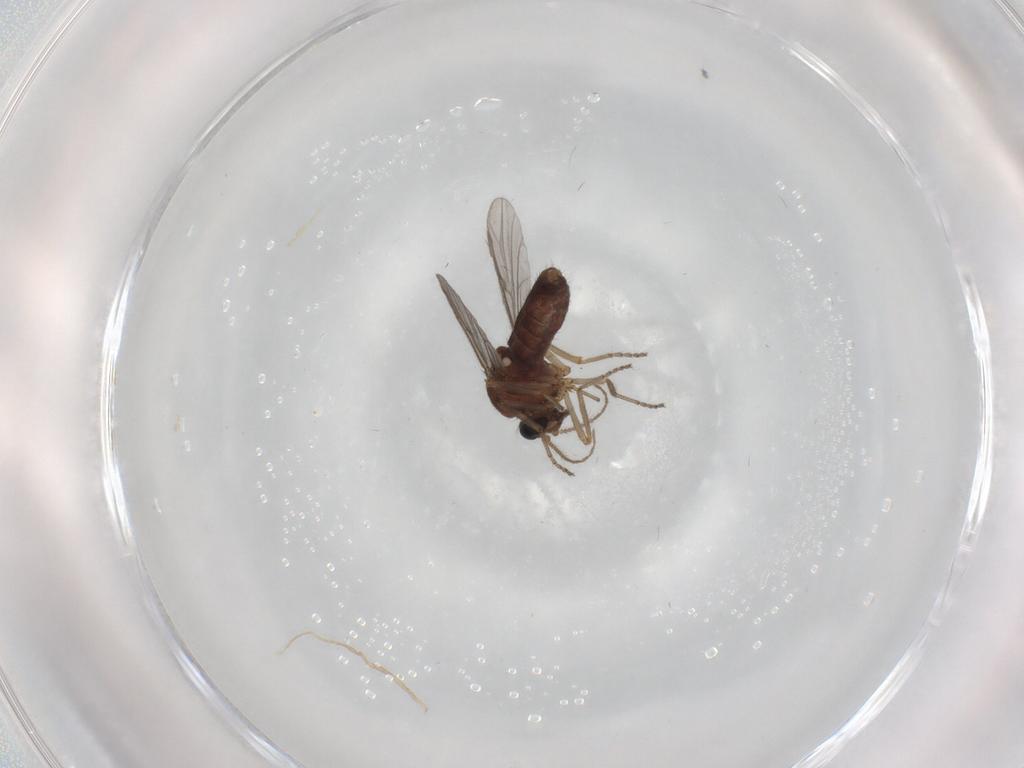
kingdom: Animalia
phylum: Arthropoda
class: Insecta
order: Diptera
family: Ceratopogonidae
